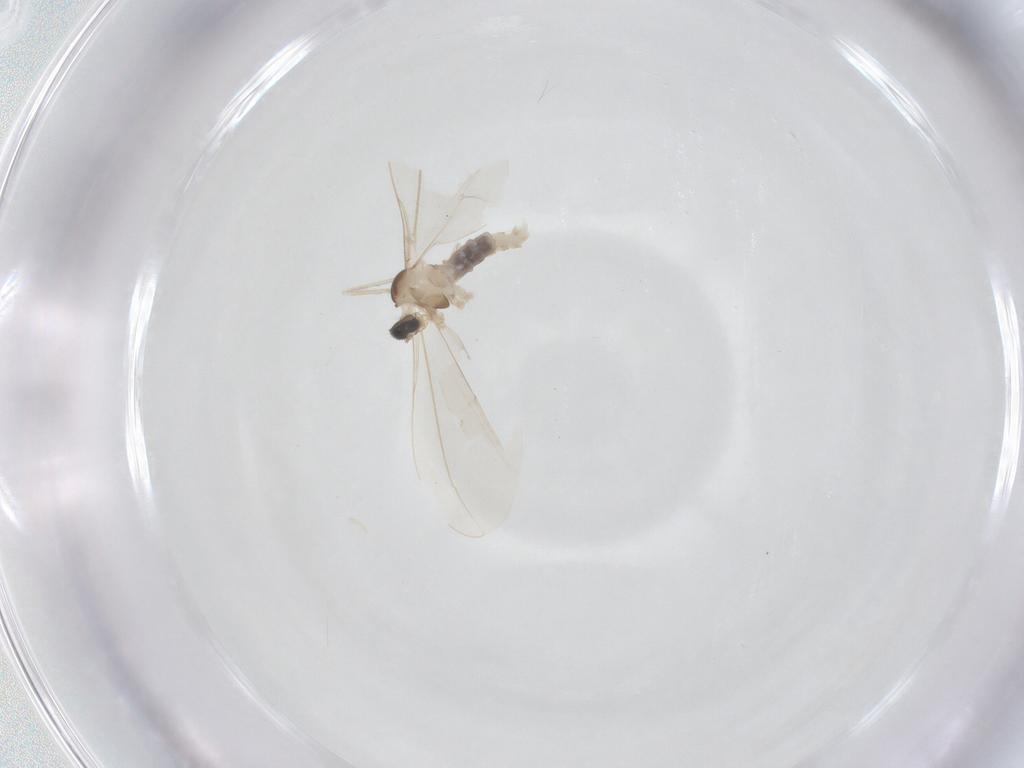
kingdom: Animalia
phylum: Arthropoda
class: Insecta
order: Diptera
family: Cecidomyiidae
